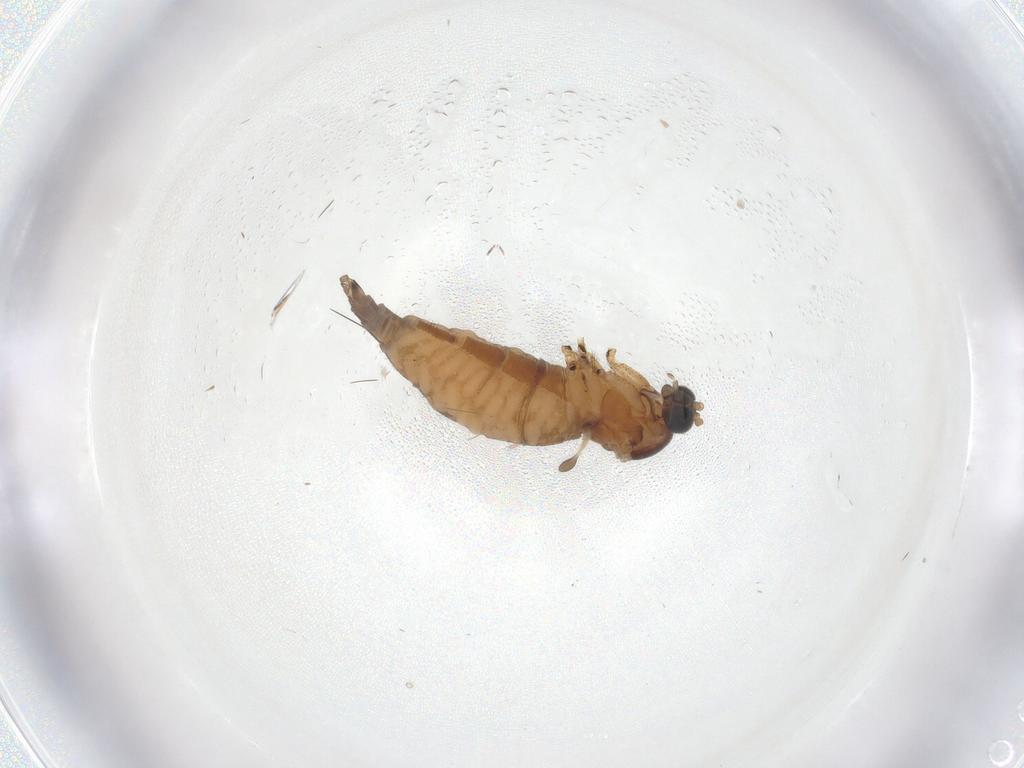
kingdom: Animalia
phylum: Arthropoda
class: Insecta
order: Diptera
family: Sciaridae
